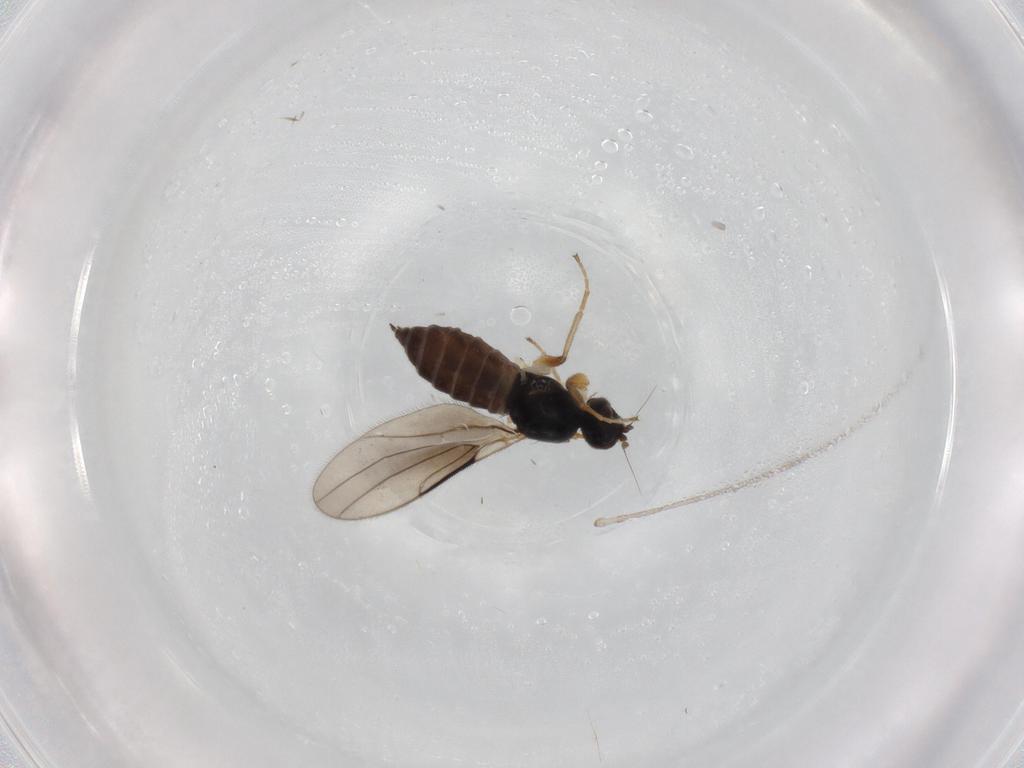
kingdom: Animalia
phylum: Arthropoda
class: Insecta
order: Diptera
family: Hybotidae
